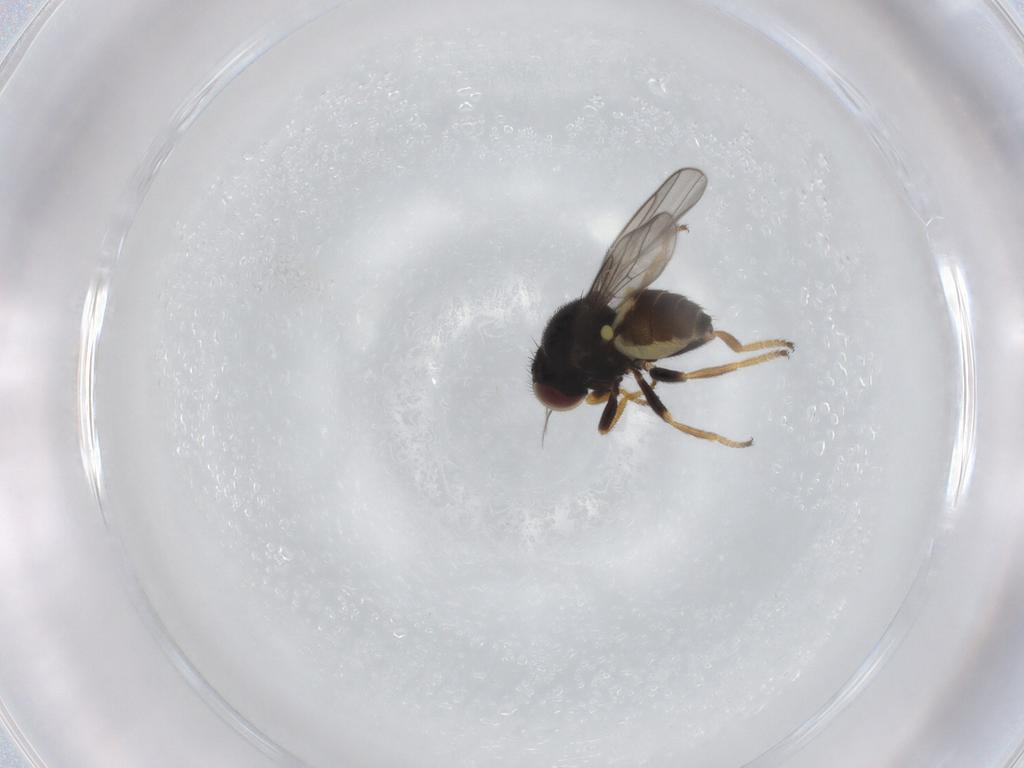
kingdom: Animalia
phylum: Arthropoda
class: Insecta
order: Diptera
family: Chloropidae
